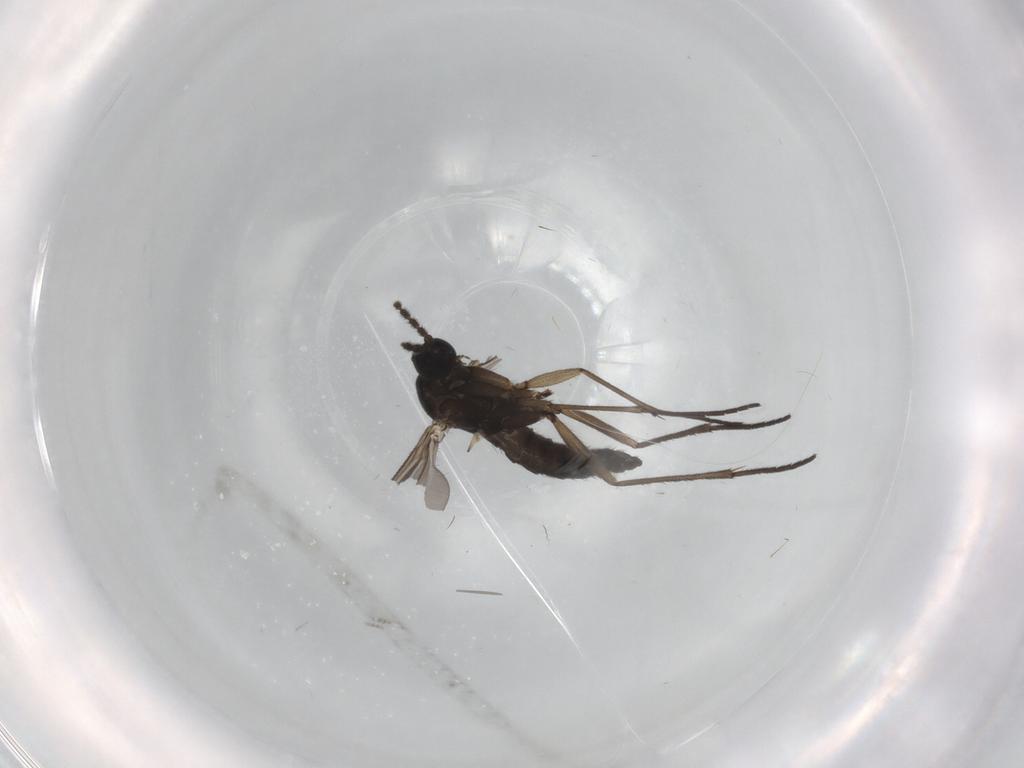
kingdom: Animalia
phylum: Arthropoda
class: Insecta
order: Diptera
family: Sciaridae
